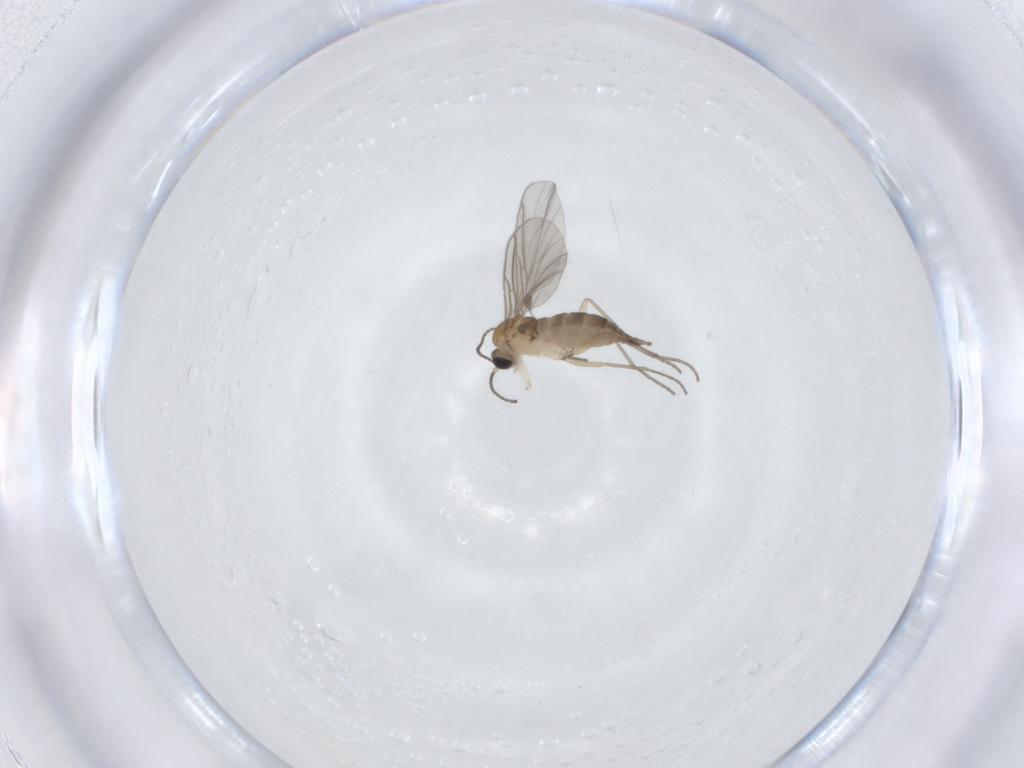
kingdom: Animalia
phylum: Arthropoda
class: Insecta
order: Diptera
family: Sciaridae
